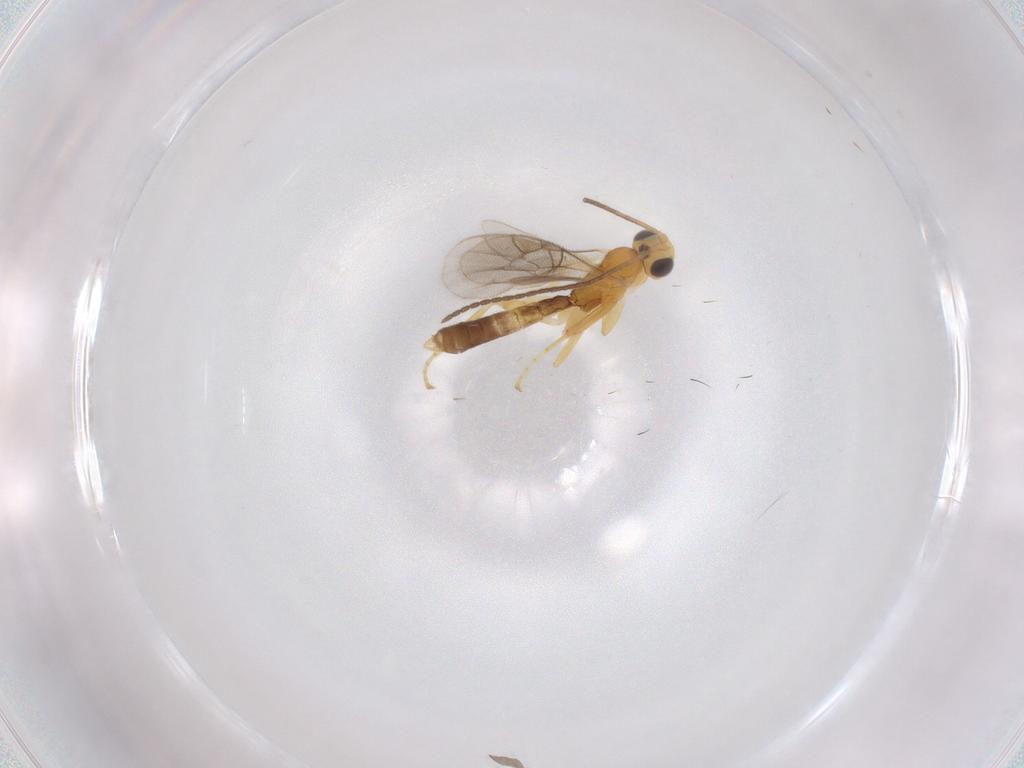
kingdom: Animalia
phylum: Arthropoda
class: Insecta
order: Hymenoptera
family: Ichneumonidae
